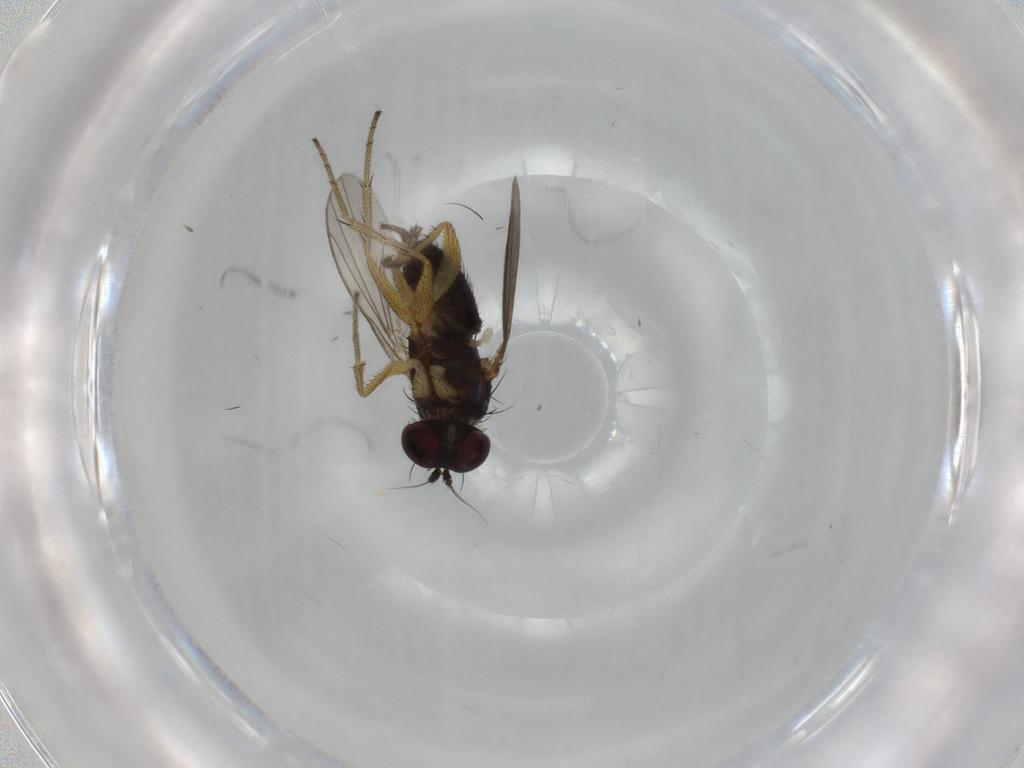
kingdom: Animalia
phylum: Arthropoda
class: Insecta
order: Diptera
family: Dolichopodidae
